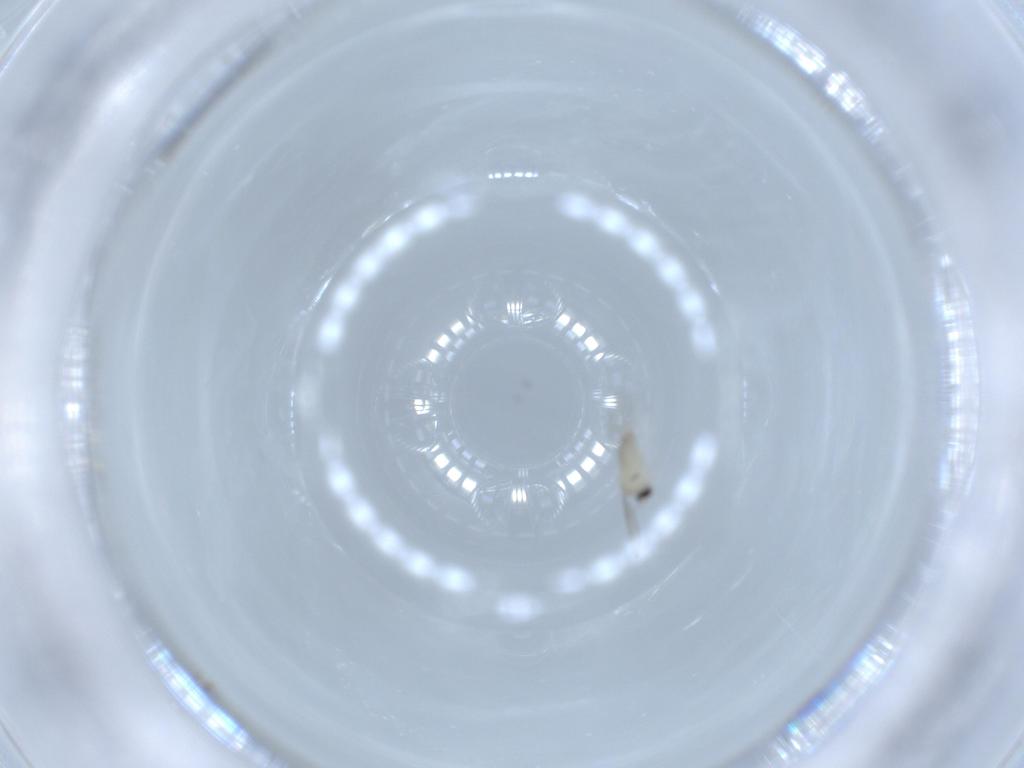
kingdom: Animalia
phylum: Arthropoda
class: Insecta
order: Diptera
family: Cecidomyiidae
